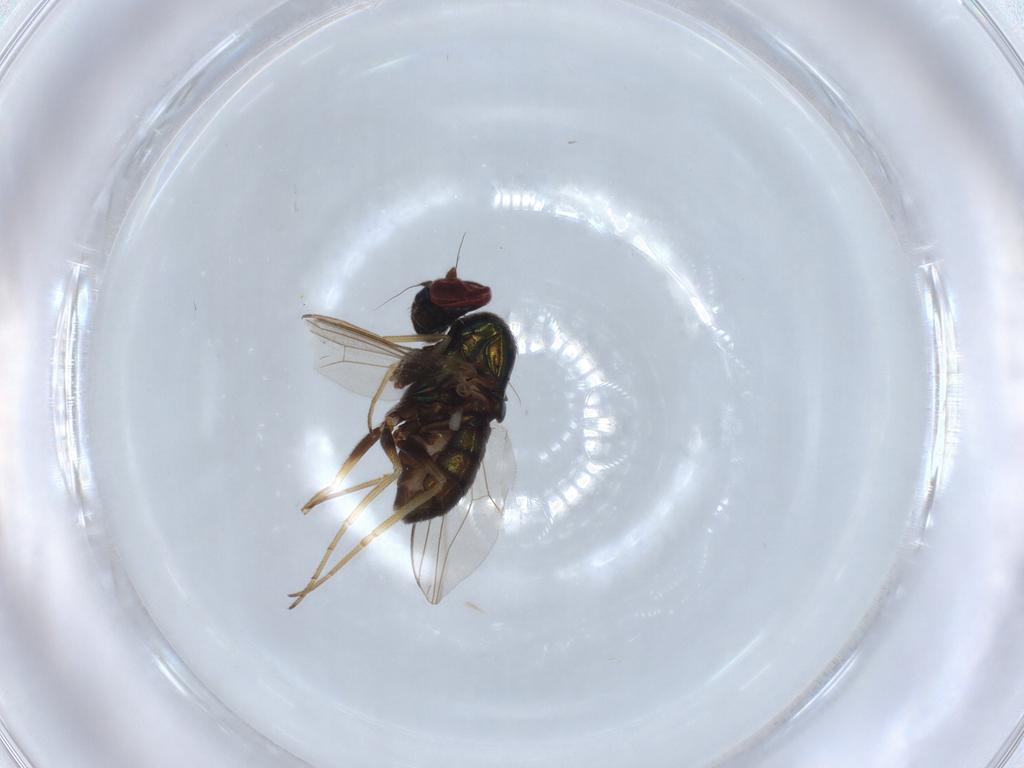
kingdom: Animalia
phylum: Arthropoda
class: Insecta
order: Diptera
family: Dolichopodidae
